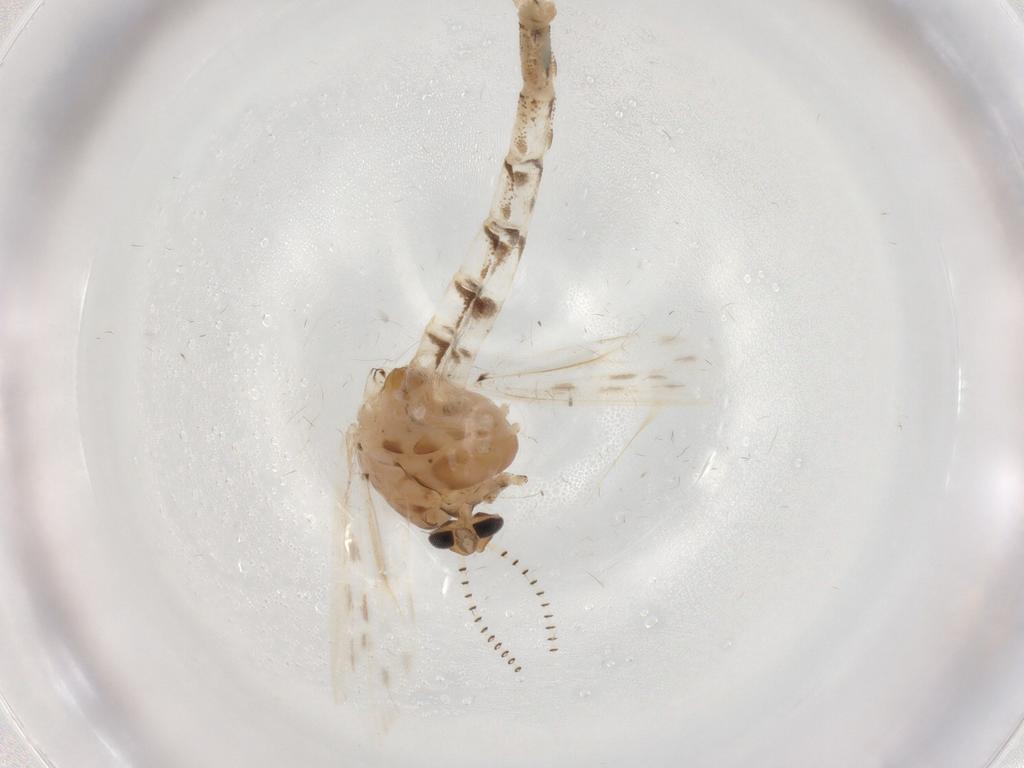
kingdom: Animalia
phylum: Arthropoda
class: Insecta
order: Diptera
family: Chaoboridae
